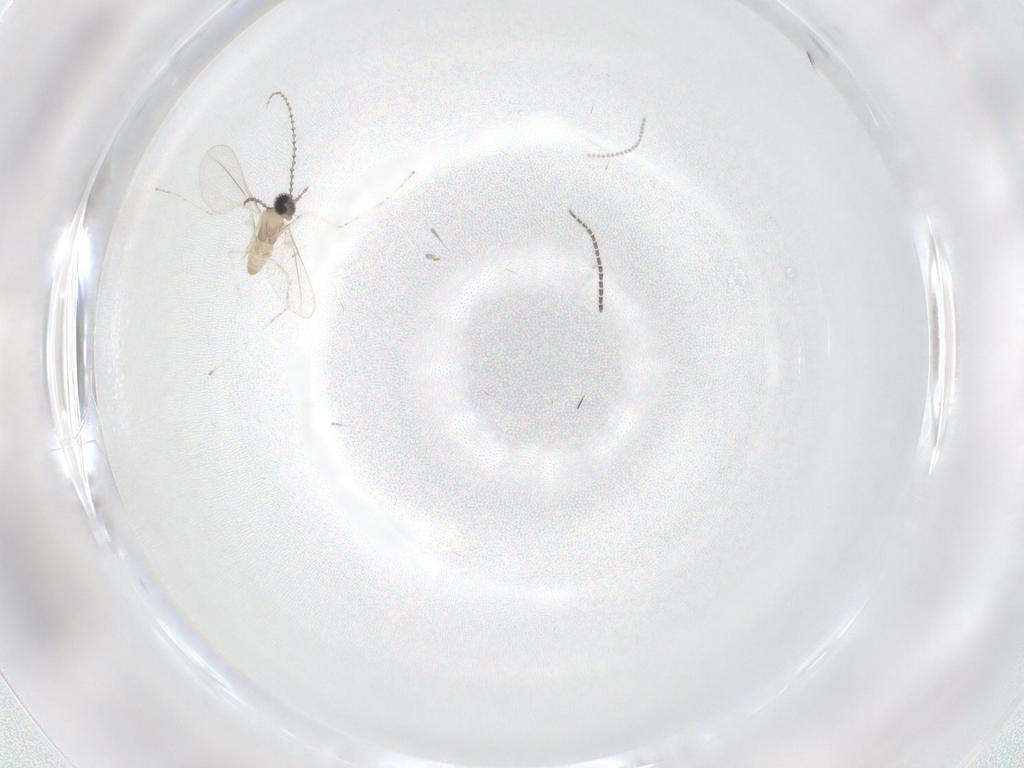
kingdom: Animalia
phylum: Arthropoda
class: Insecta
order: Diptera
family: Cecidomyiidae
